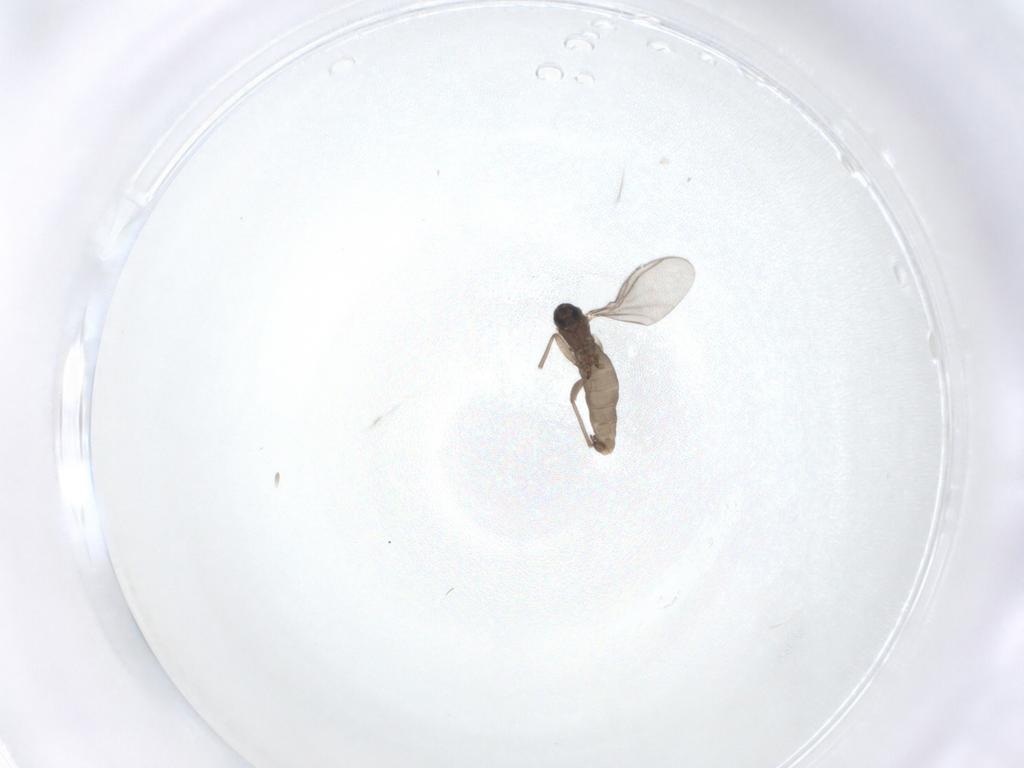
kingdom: Animalia
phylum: Arthropoda
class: Insecta
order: Diptera
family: Sciaridae
